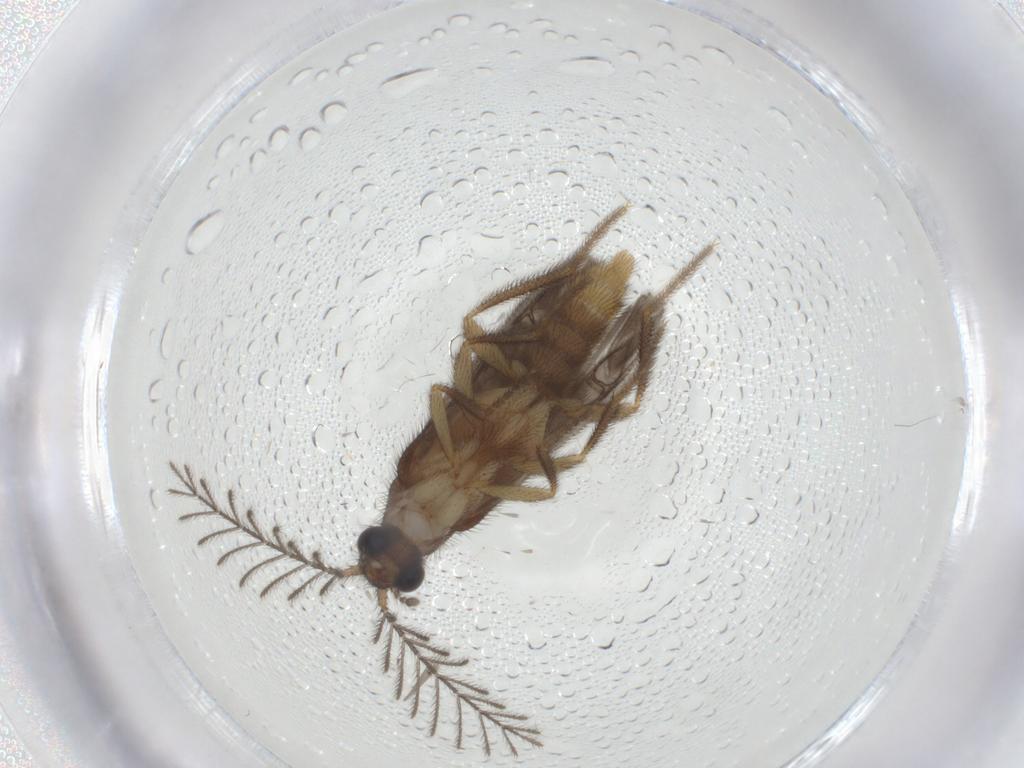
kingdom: Animalia
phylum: Arthropoda
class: Insecta
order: Coleoptera
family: Phengodidae
